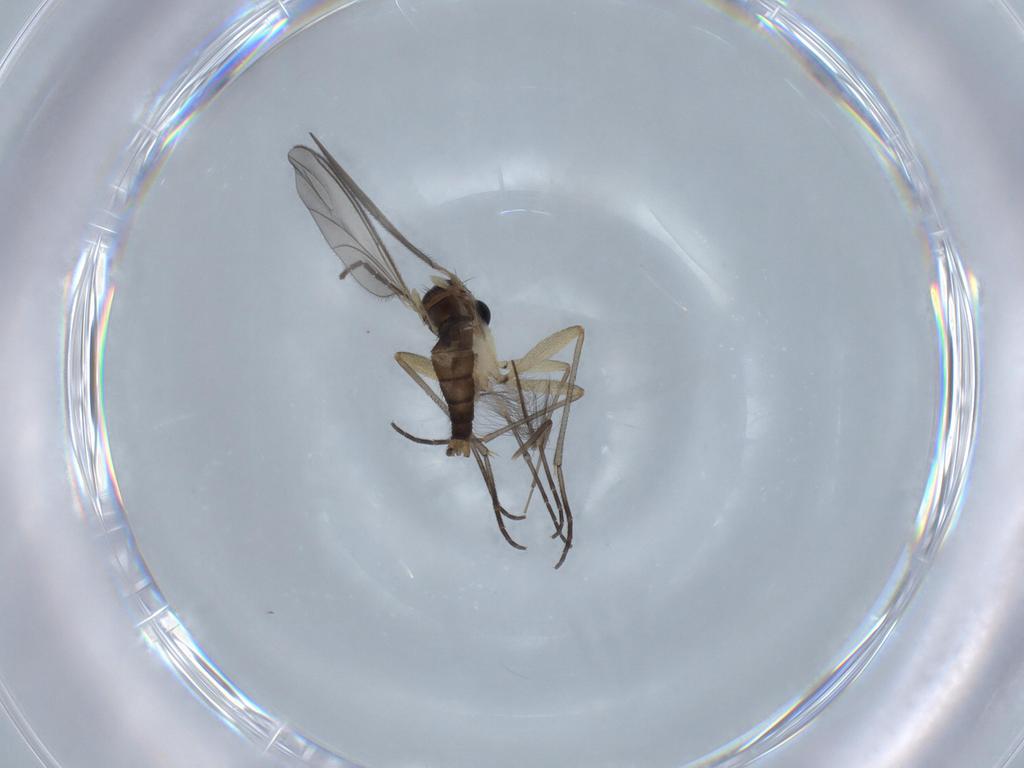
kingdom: Animalia
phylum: Arthropoda
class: Insecta
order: Diptera
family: Sciaridae
